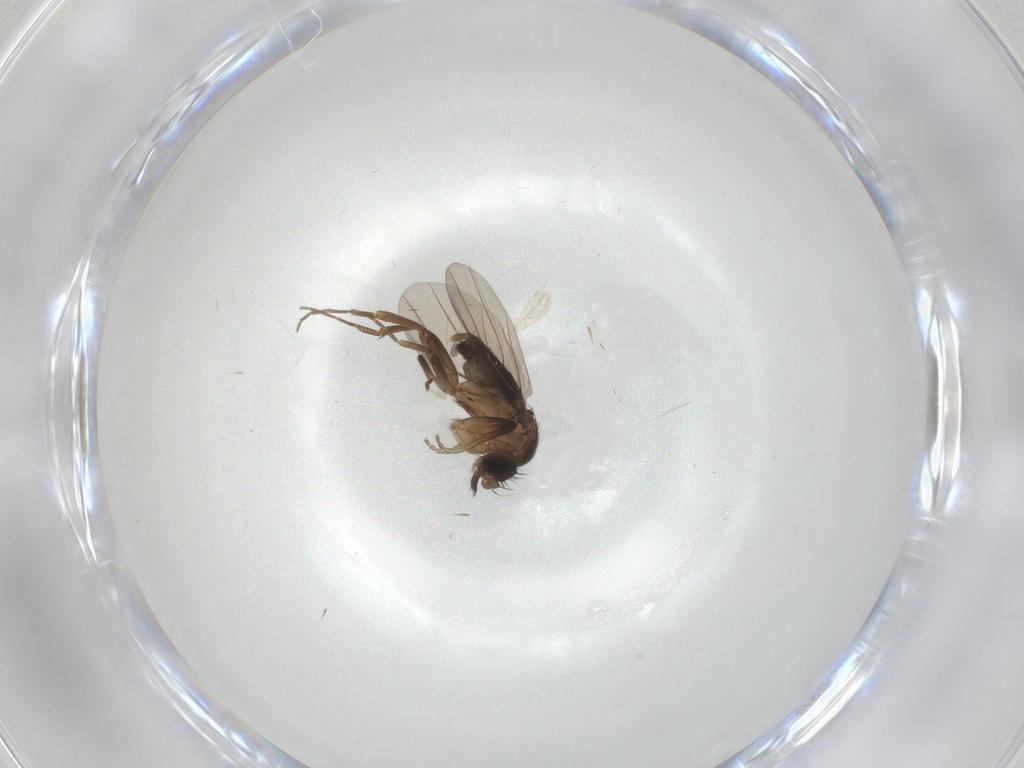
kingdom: Animalia
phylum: Arthropoda
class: Insecta
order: Diptera
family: Phoridae
